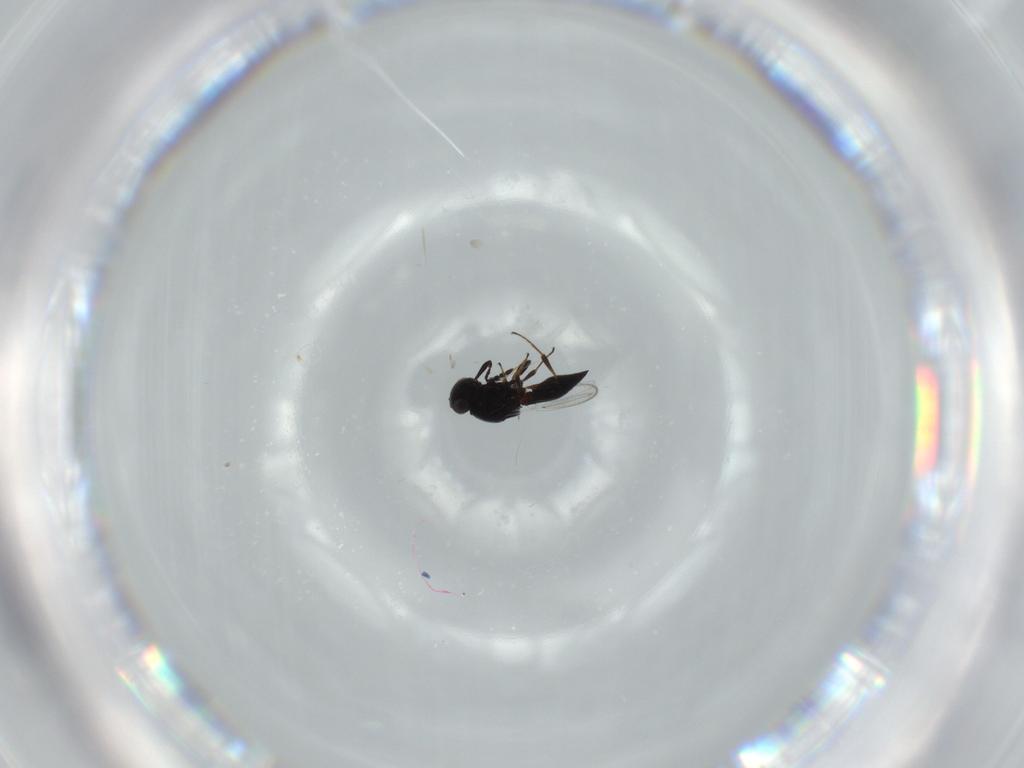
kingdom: Animalia
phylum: Arthropoda
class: Insecta
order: Hymenoptera
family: Platygastridae
